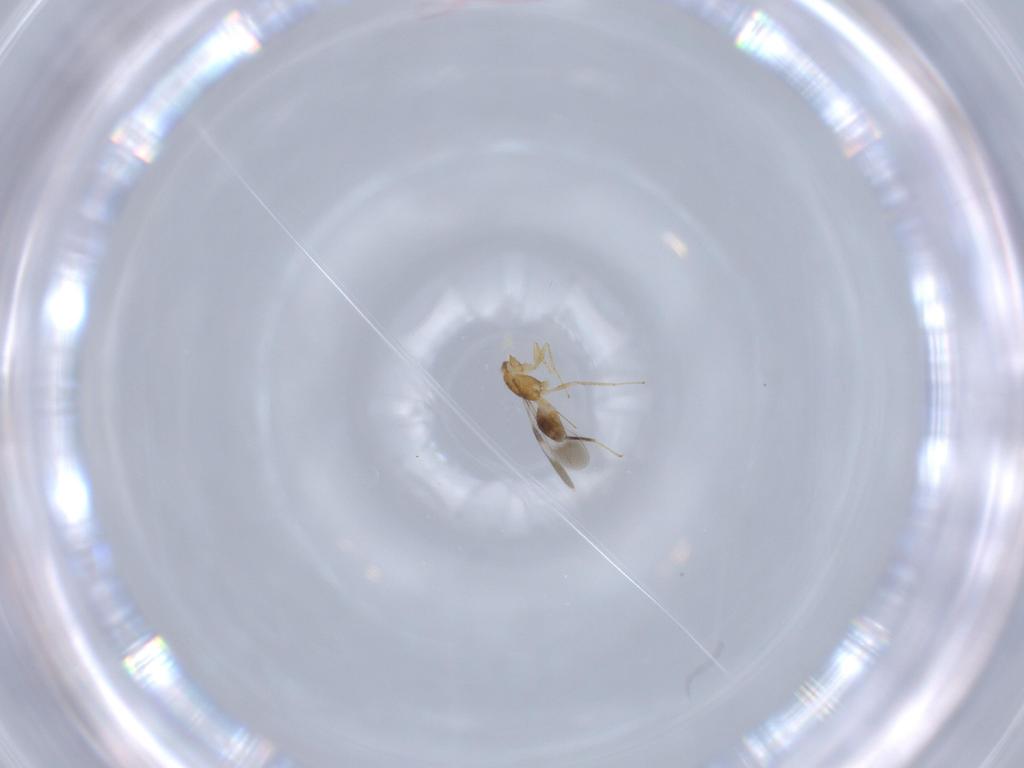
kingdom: Animalia
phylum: Arthropoda
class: Insecta
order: Hymenoptera
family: Mymaridae
